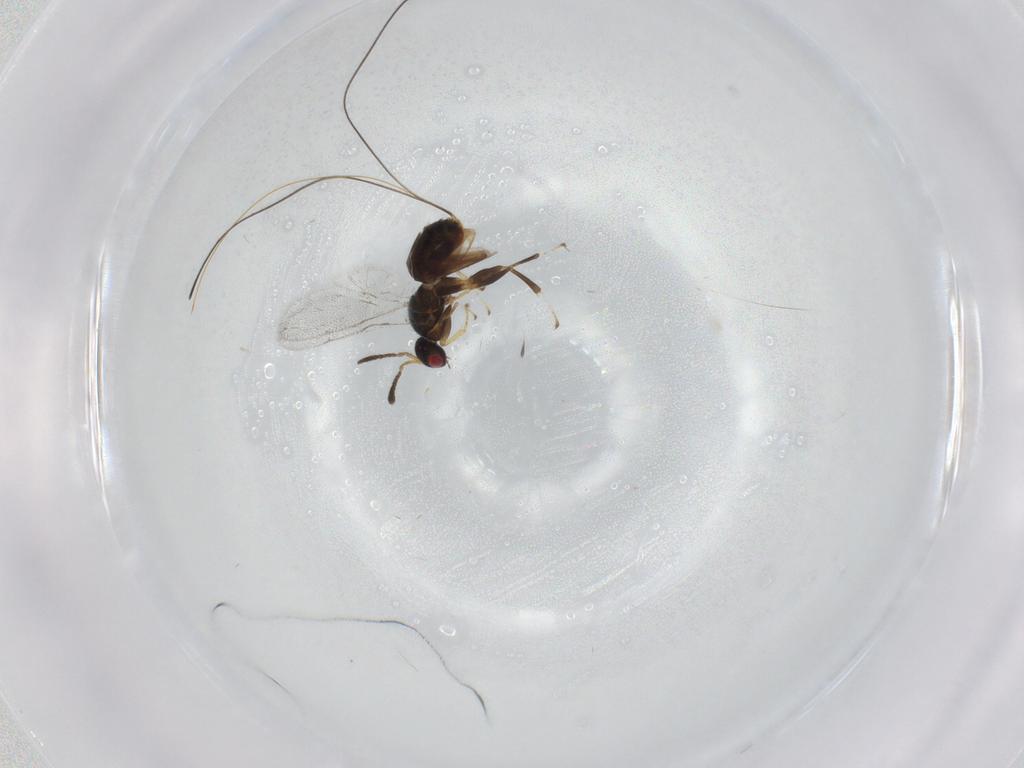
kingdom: Animalia
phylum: Arthropoda
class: Insecta
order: Hymenoptera
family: Torymidae
